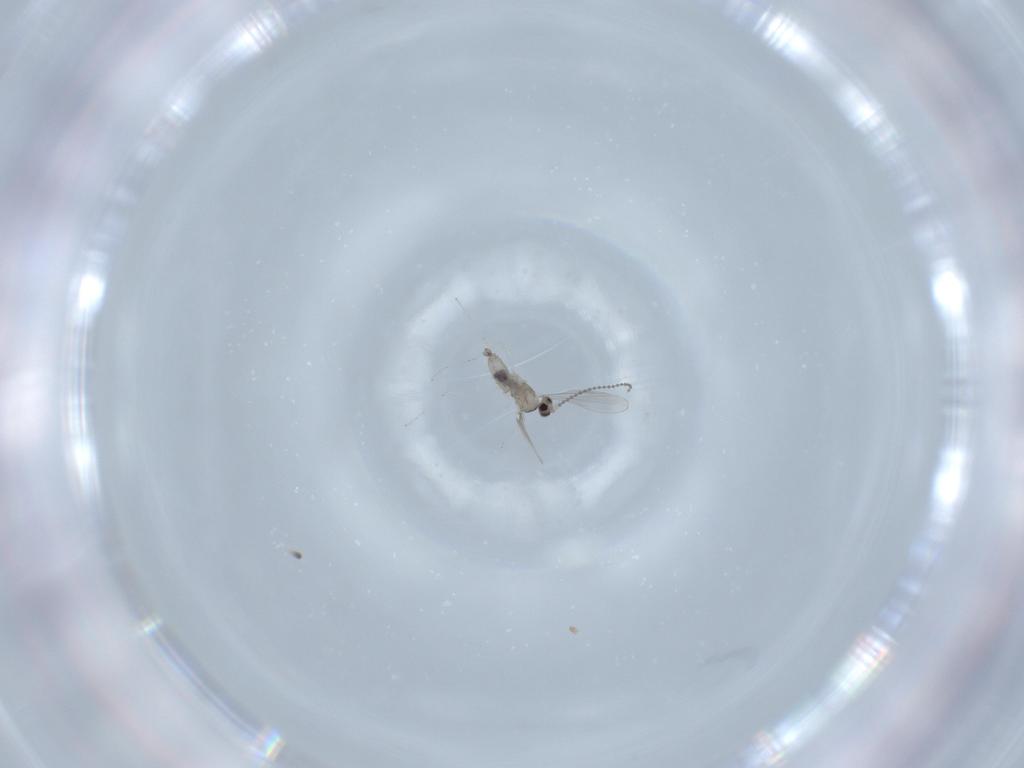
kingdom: Animalia
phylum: Arthropoda
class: Insecta
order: Diptera
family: Cecidomyiidae
